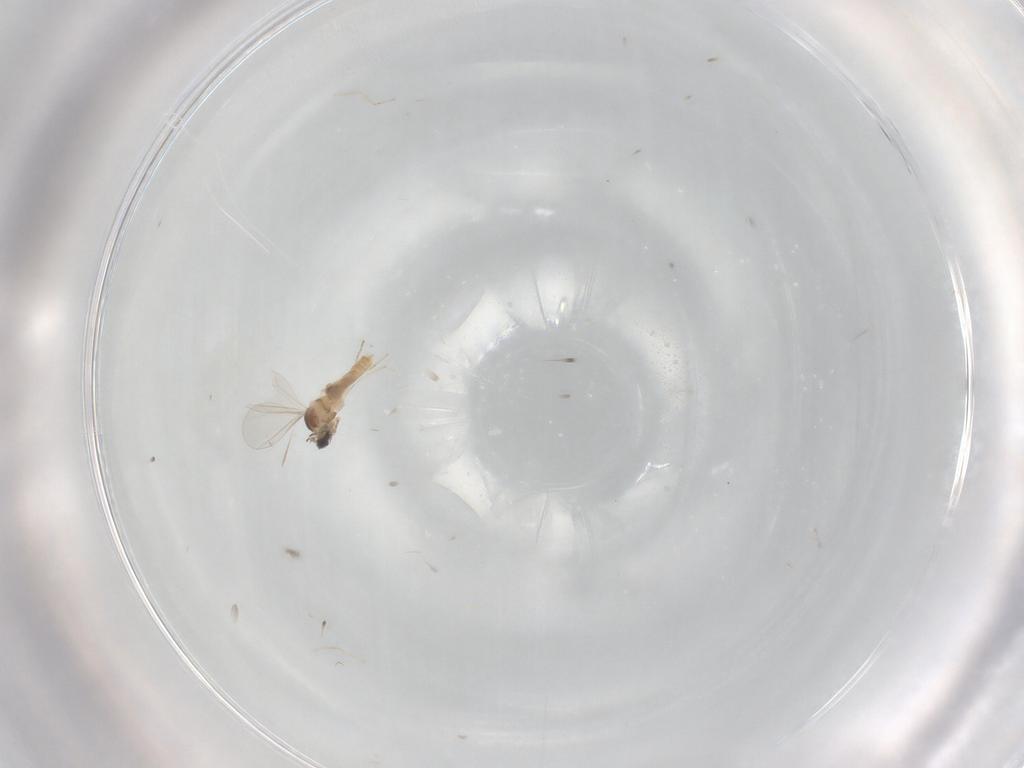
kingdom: Animalia
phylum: Arthropoda
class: Insecta
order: Diptera
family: Cecidomyiidae
